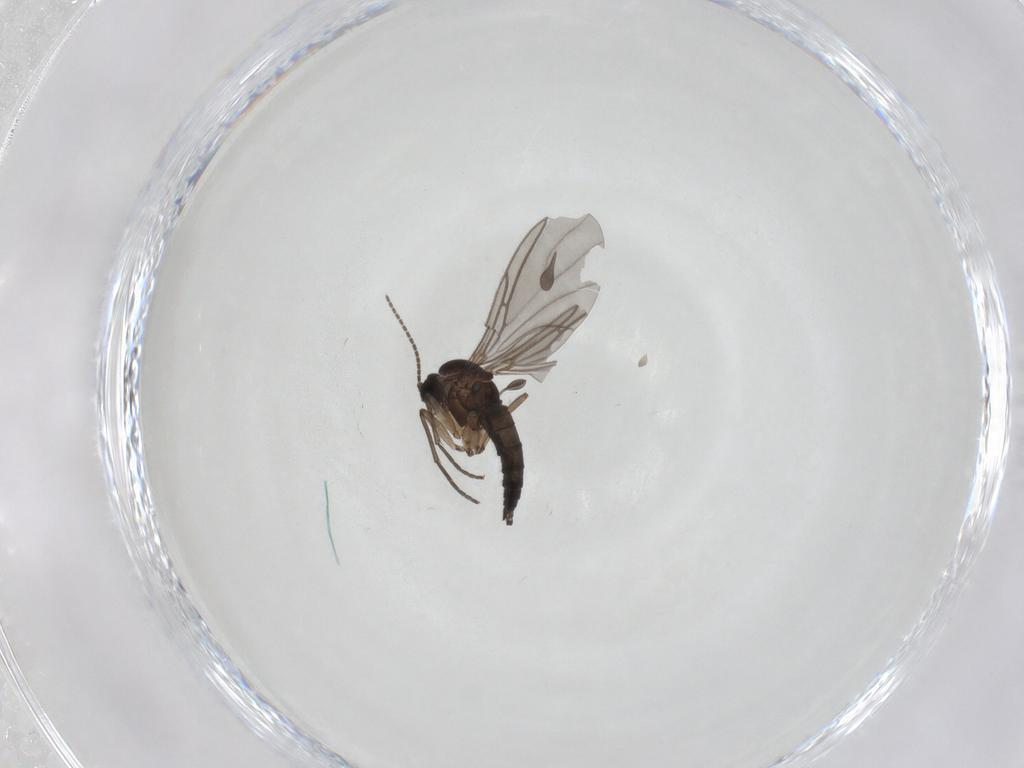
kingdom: Animalia
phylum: Arthropoda
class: Insecta
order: Diptera
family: Sciaridae
